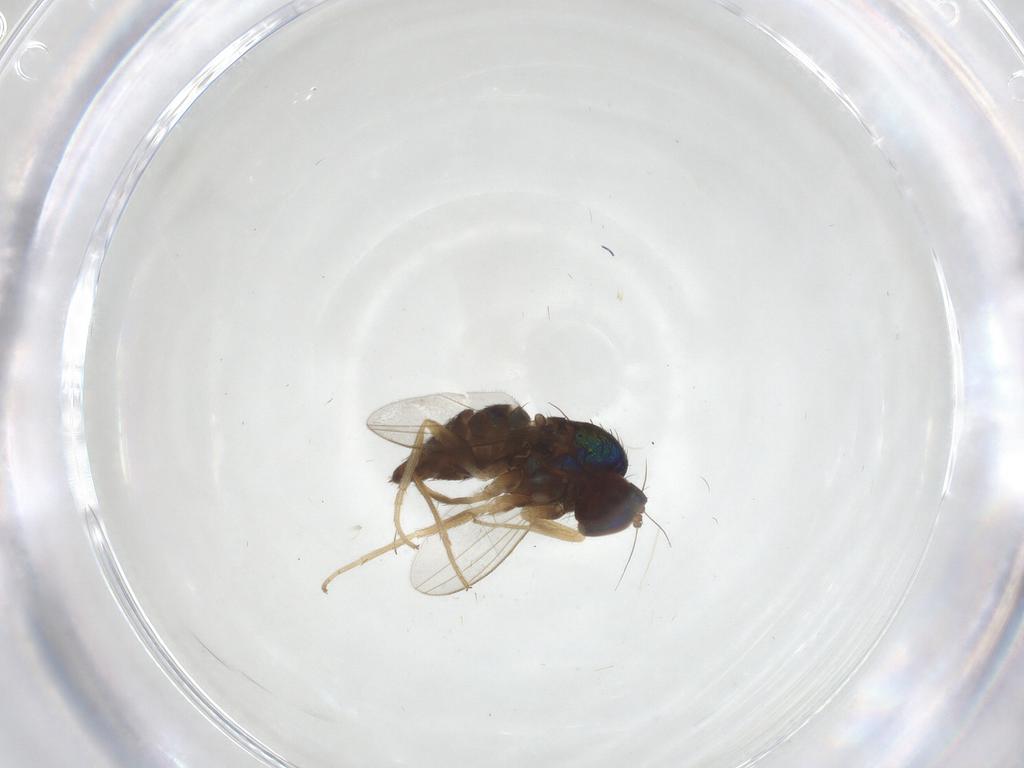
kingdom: Animalia
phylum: Arthropoda
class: Insecta
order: Diptera
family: Dolichopodidae
